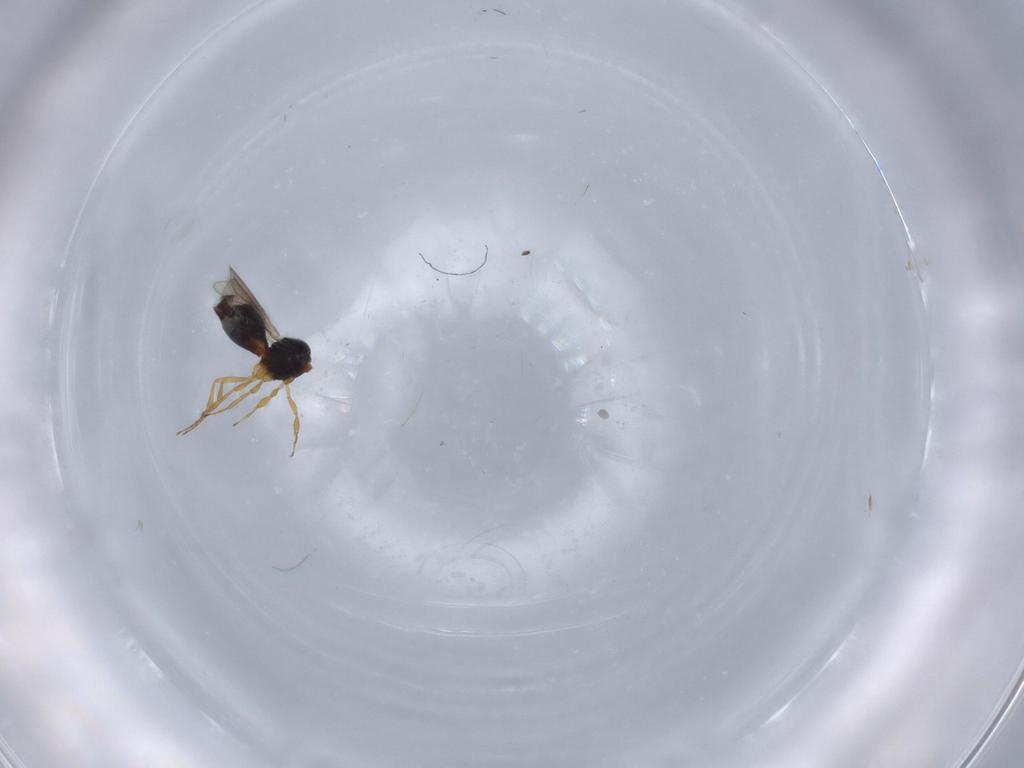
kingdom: Animalia
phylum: Arthropoda
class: Insecta
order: Hymenoptera
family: Scelionidae
